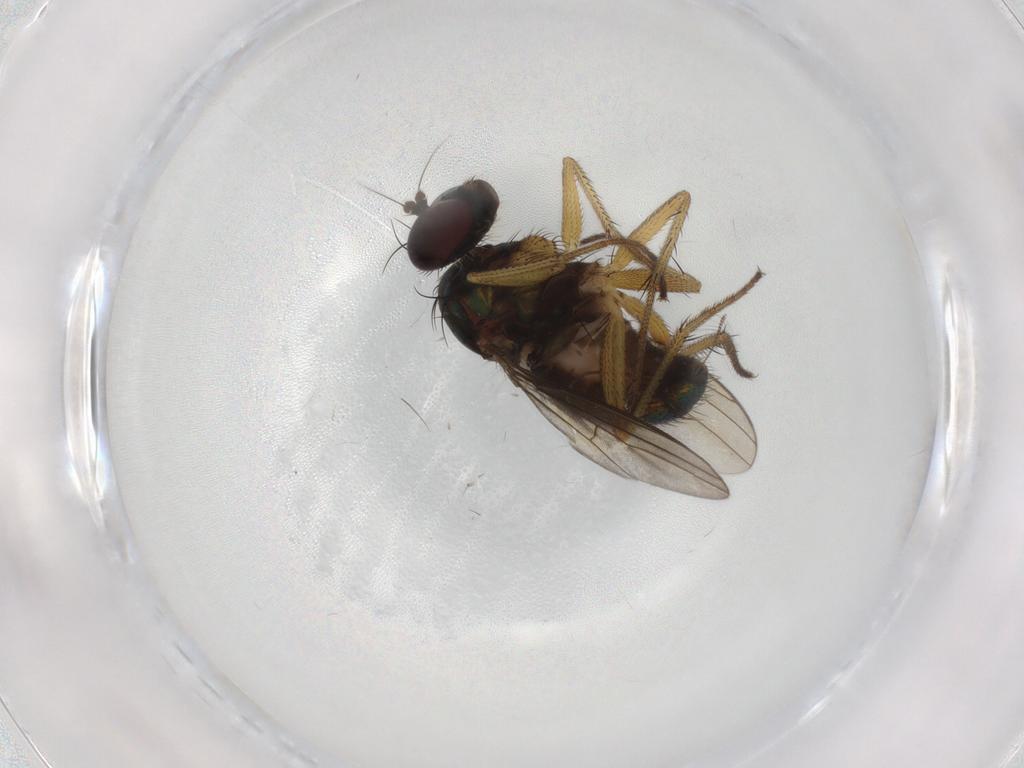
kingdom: Animalia
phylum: Arthropoda
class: Insecta
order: Diptera
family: Dolichopodidae
